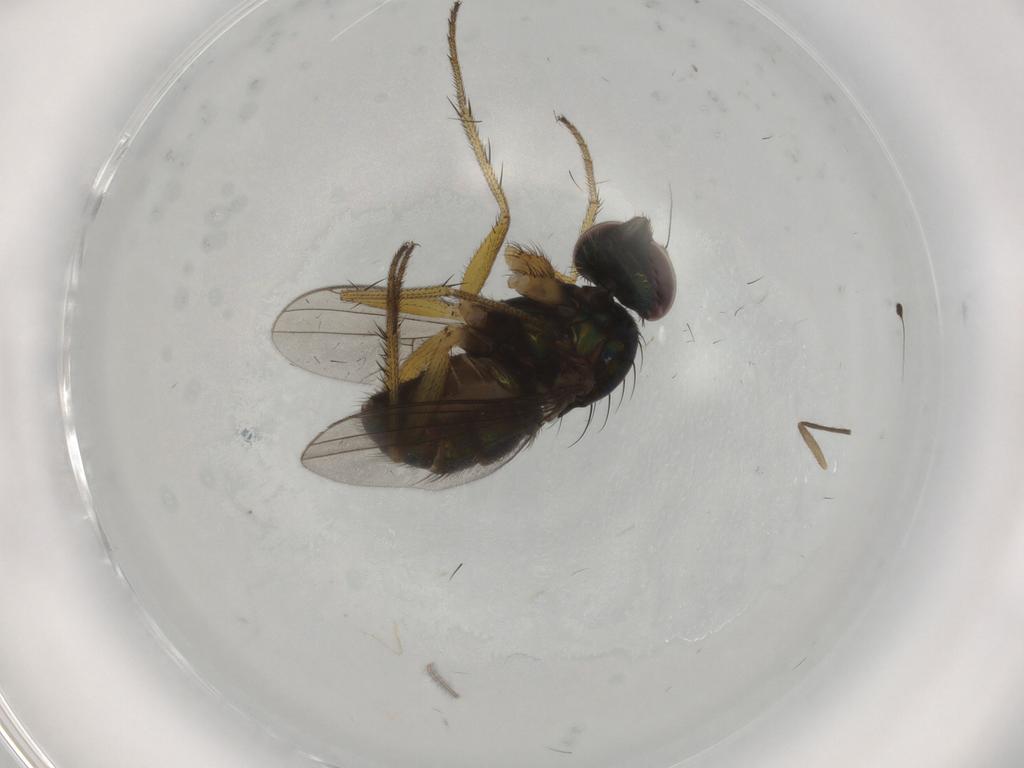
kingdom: Animalia
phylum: Arthropoda
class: Insecta
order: Diptera
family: Dolichopodidae
